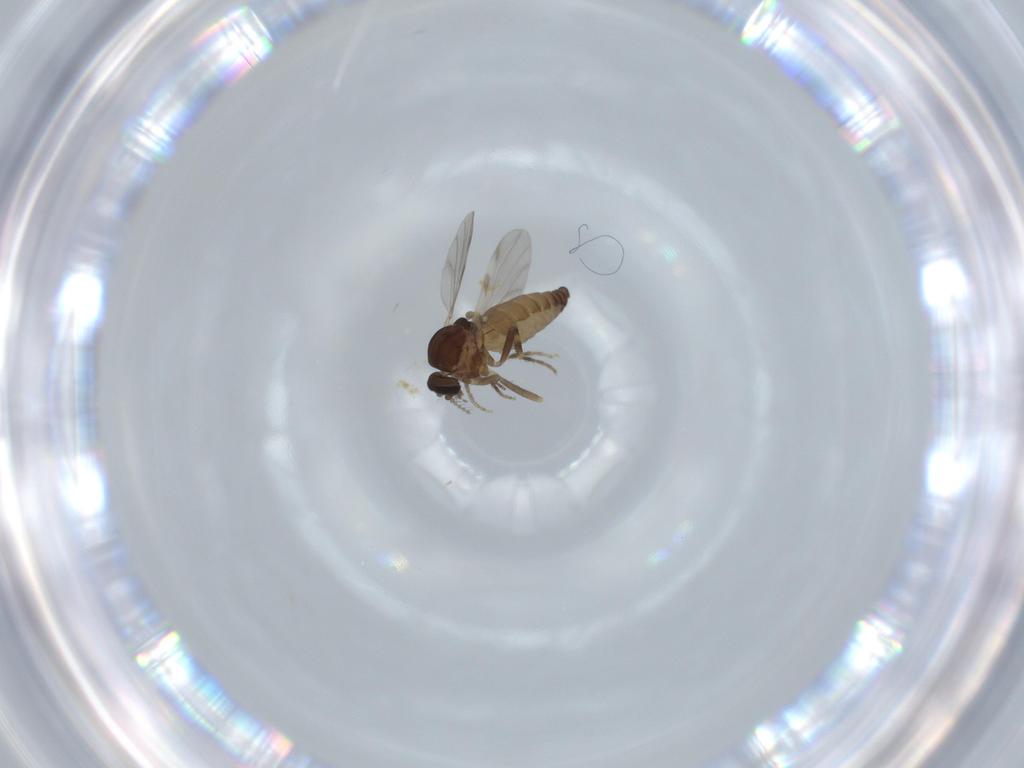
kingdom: Animalia
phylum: Arthropoda
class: Insecta
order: Diptera
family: Ceratopogonidae
